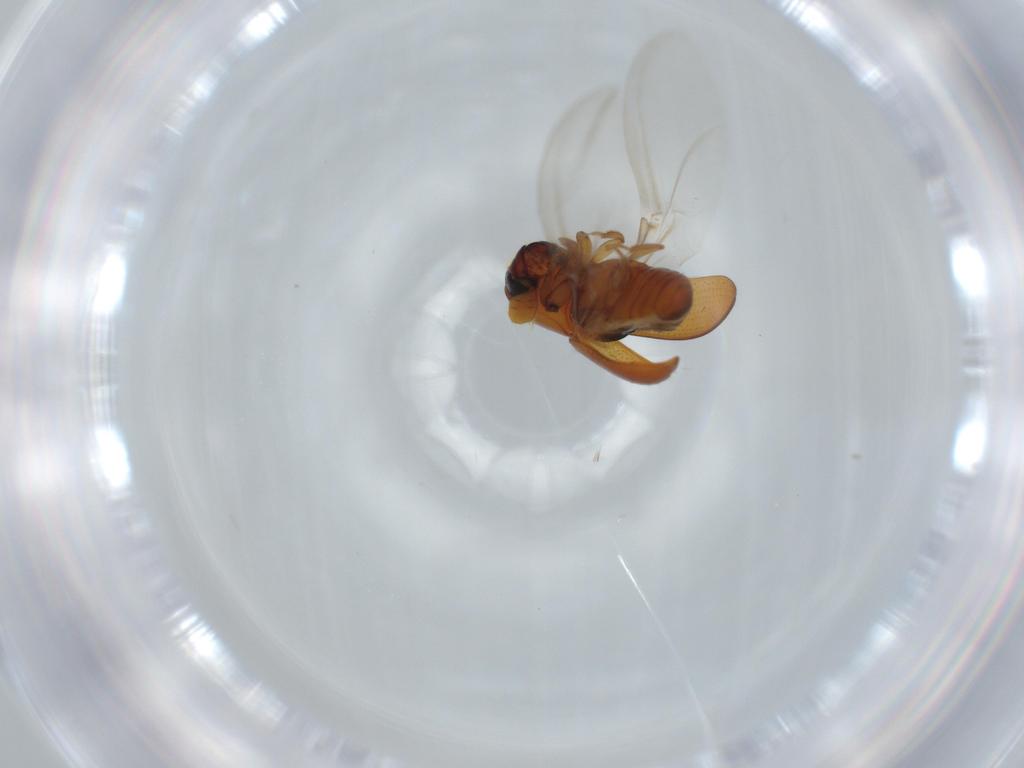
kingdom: Animalia
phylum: Arthropoda
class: Insecta
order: Coleoptera
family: Curculionidae
